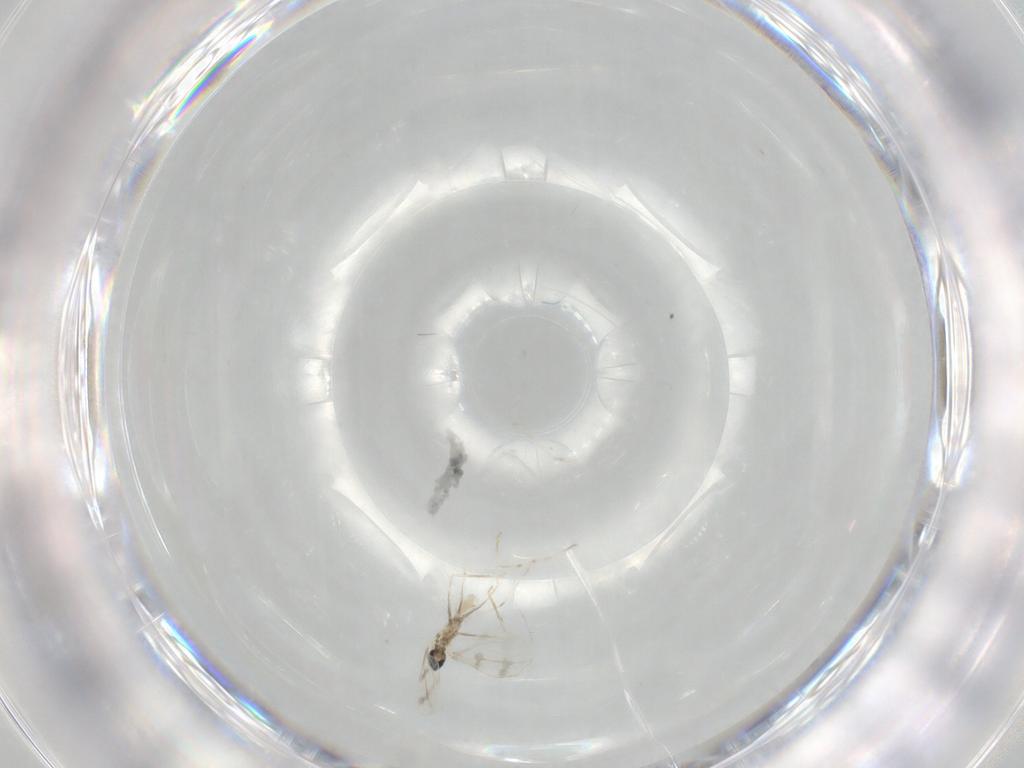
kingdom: Animalia
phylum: Arthropoda
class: Insecta
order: Diptera
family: Cecidomyiidae
